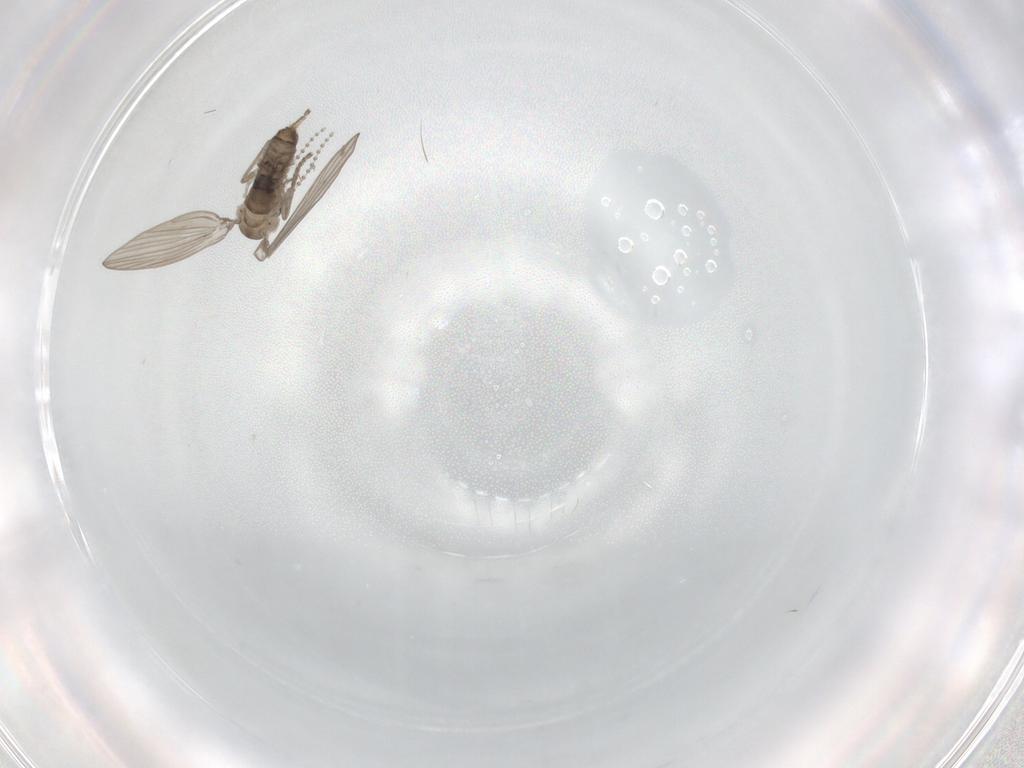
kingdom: Animalia
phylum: Arthropoda
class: Insecta
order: Diptera
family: Psychodidae
